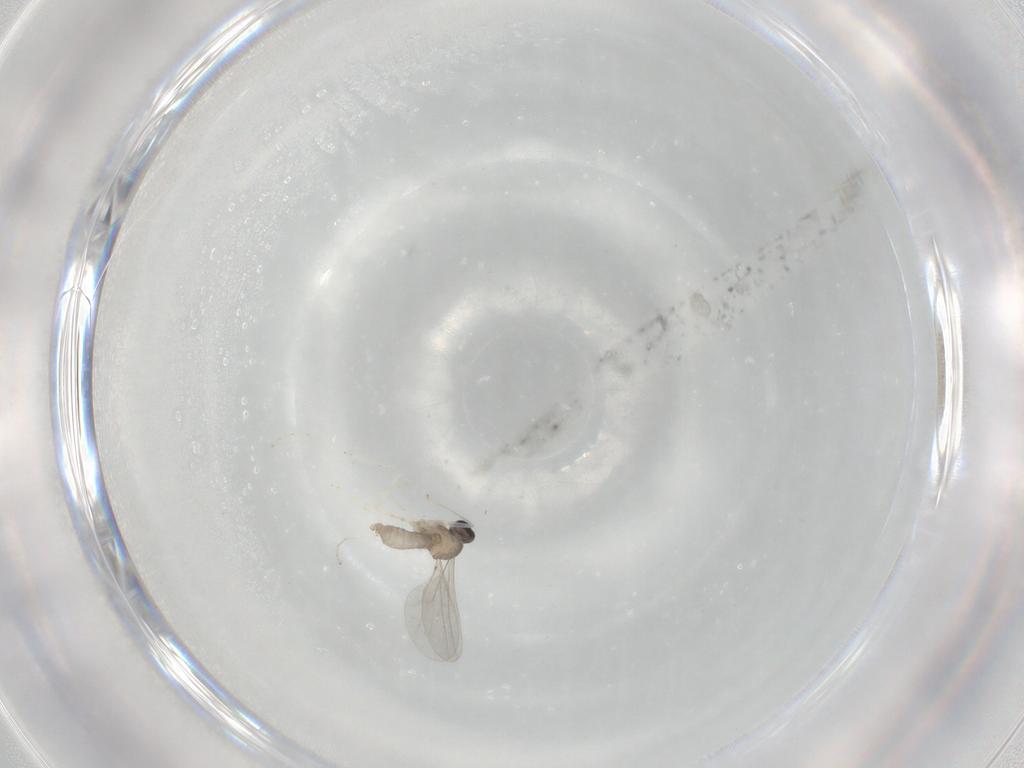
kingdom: Animalia
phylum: Arthropoda
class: Insecta
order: Diptera
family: Cecidomyiidae
